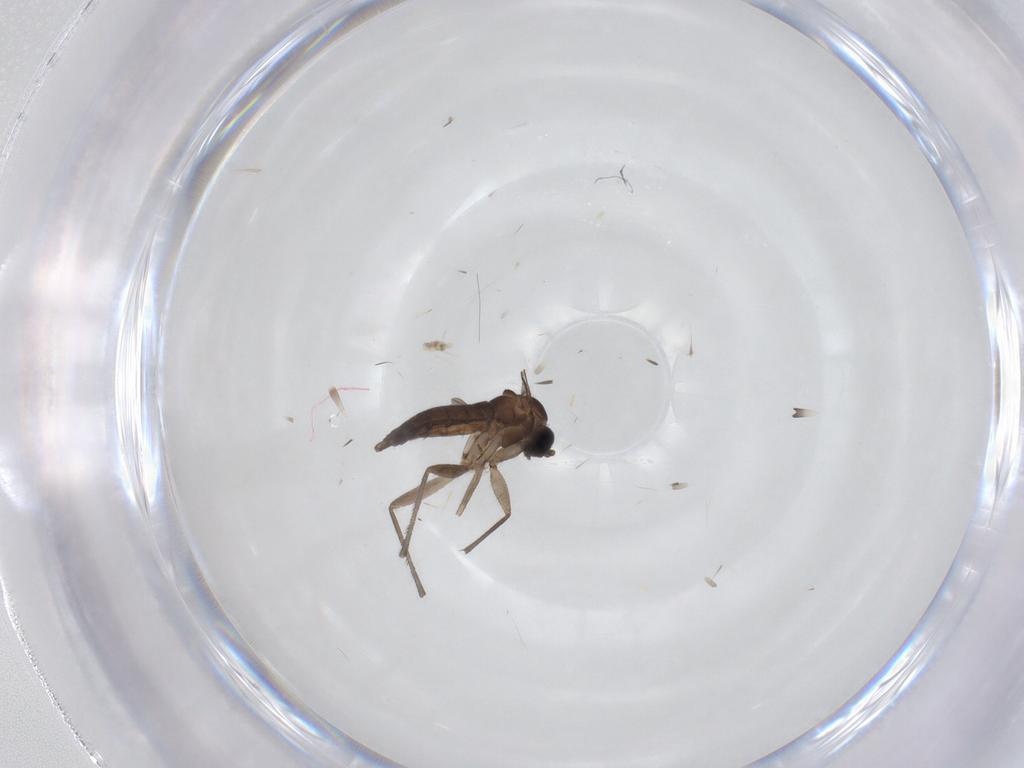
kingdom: Animalia
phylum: Arthropoda
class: Insecta
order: Diptera
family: Sciaridae
